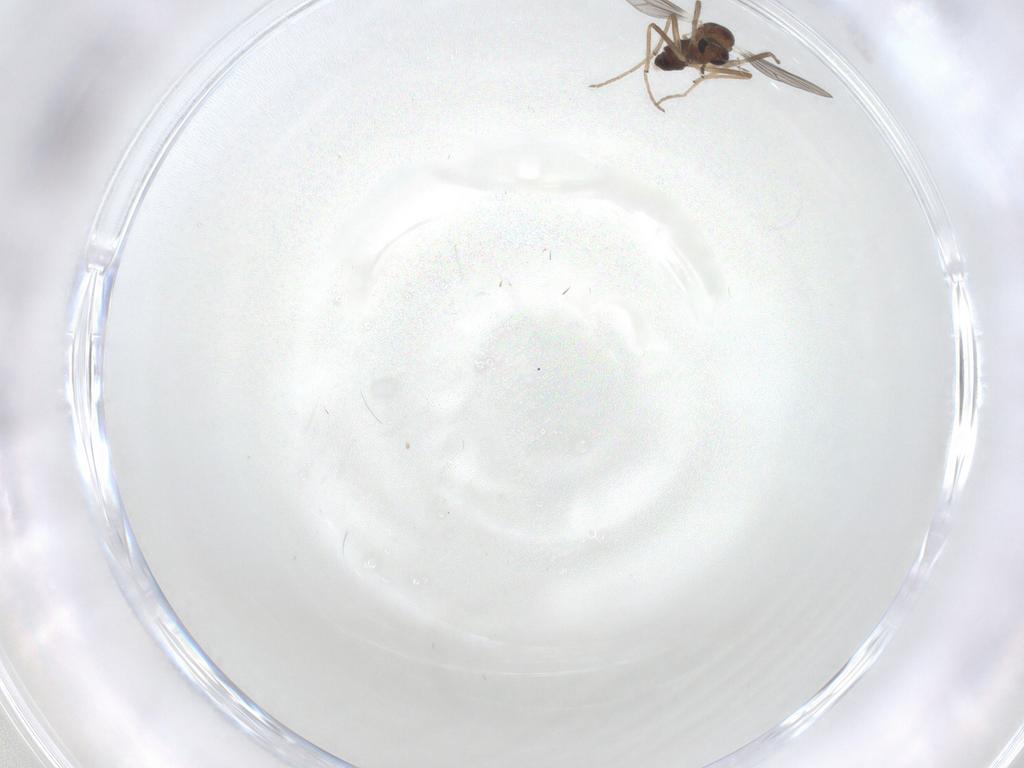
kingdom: Animalia
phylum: Arthropoda
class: Insecta
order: Diptera
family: Chironomidae
